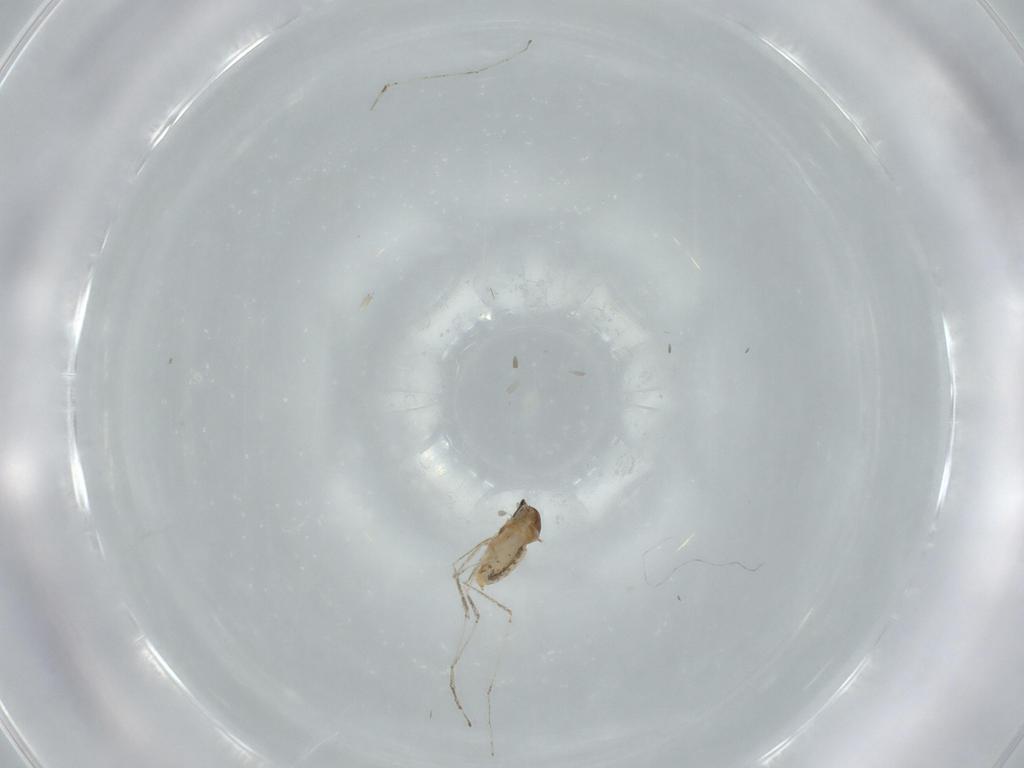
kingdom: Animalia
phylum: Arthropoda
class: Insecta
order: Diptera
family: Cecidomyiidae
